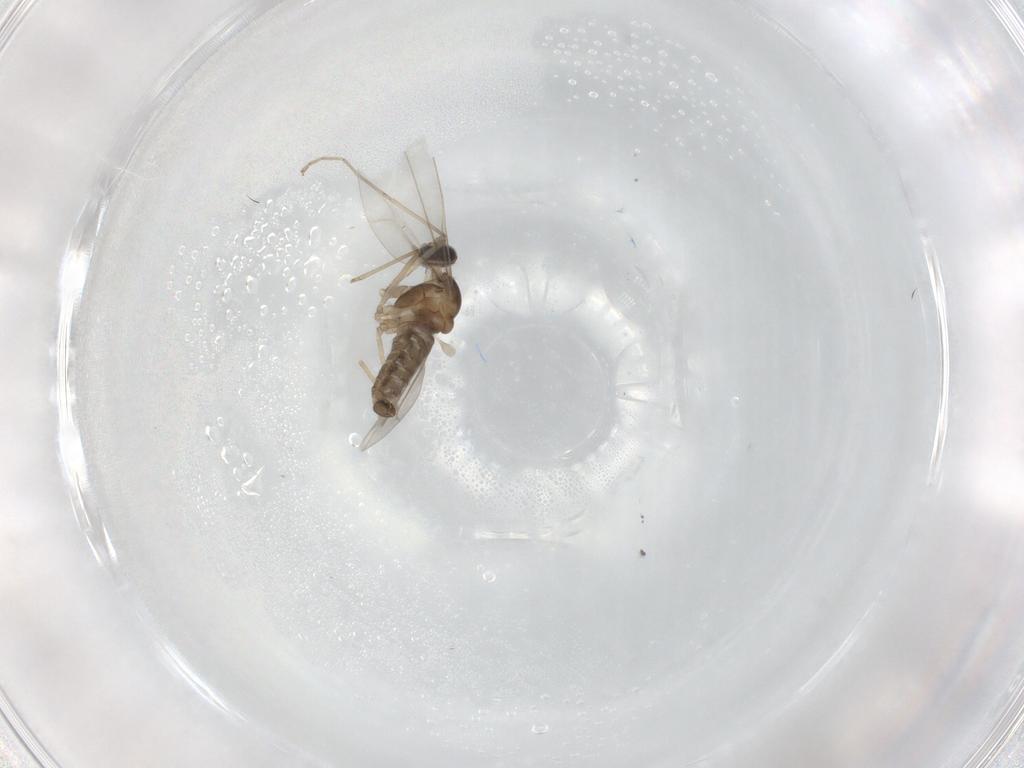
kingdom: Animalia
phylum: Arthropoda
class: Insecta
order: Diptera
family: Cecidomyiidae
